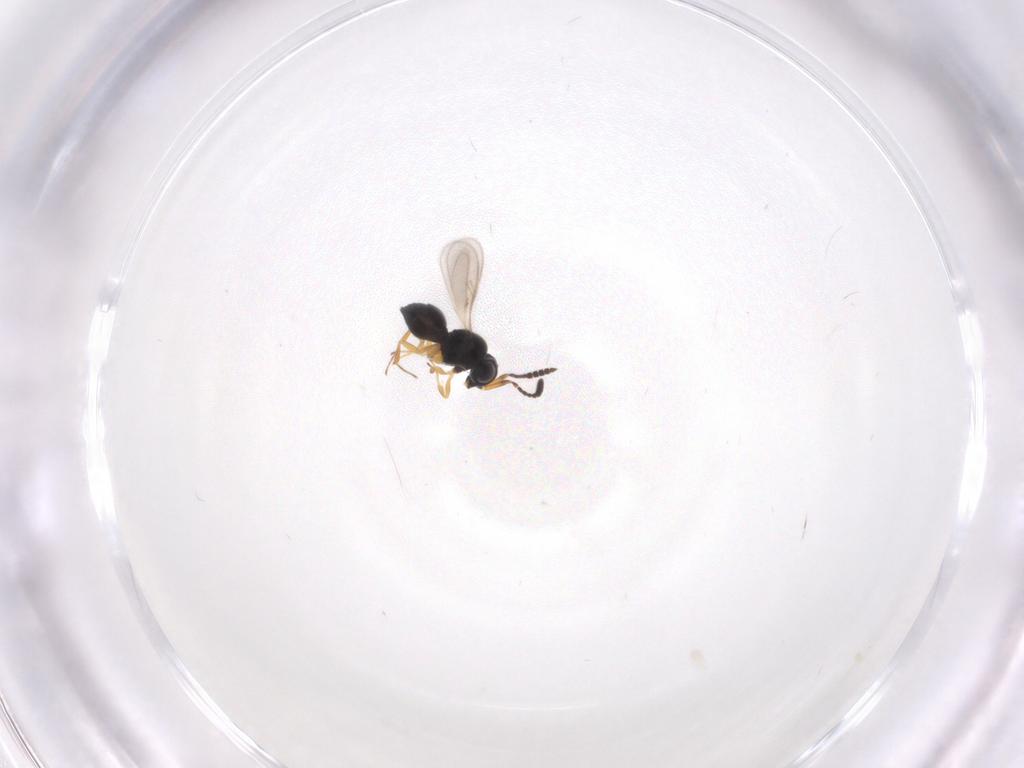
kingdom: Animalia
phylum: Arthropoda
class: Insecta
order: Hymenoptera
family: Scelionidae
